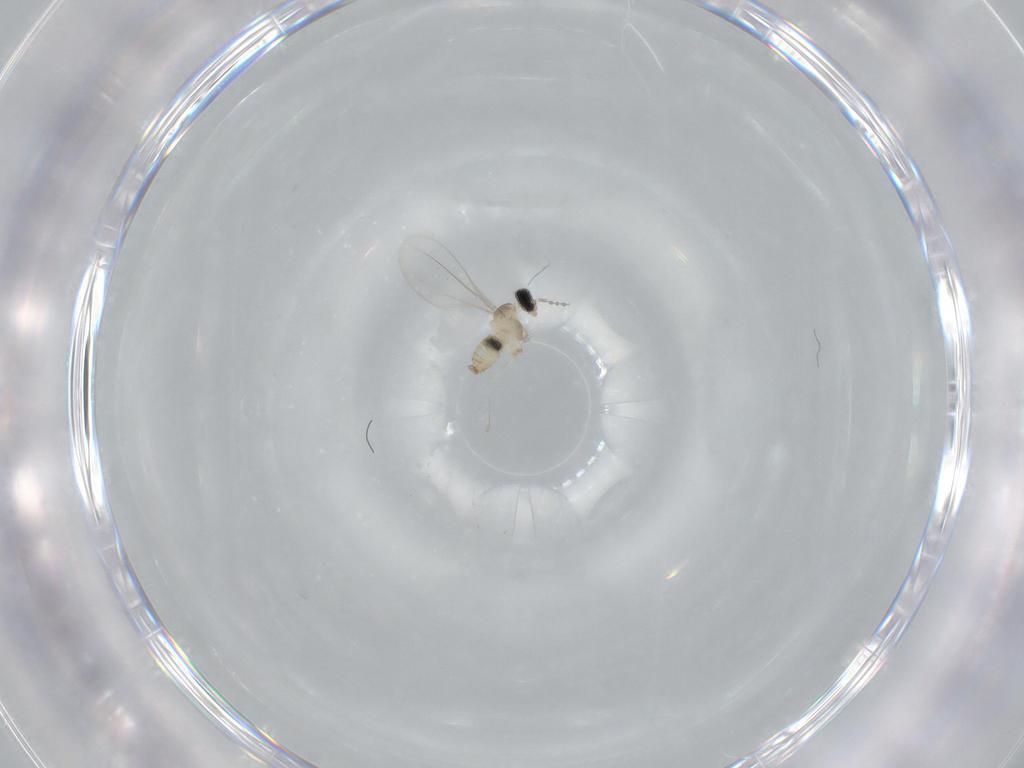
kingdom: Animalia
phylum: Arthropoda
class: Insecta
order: Diptera
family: Cecidomyiidae
